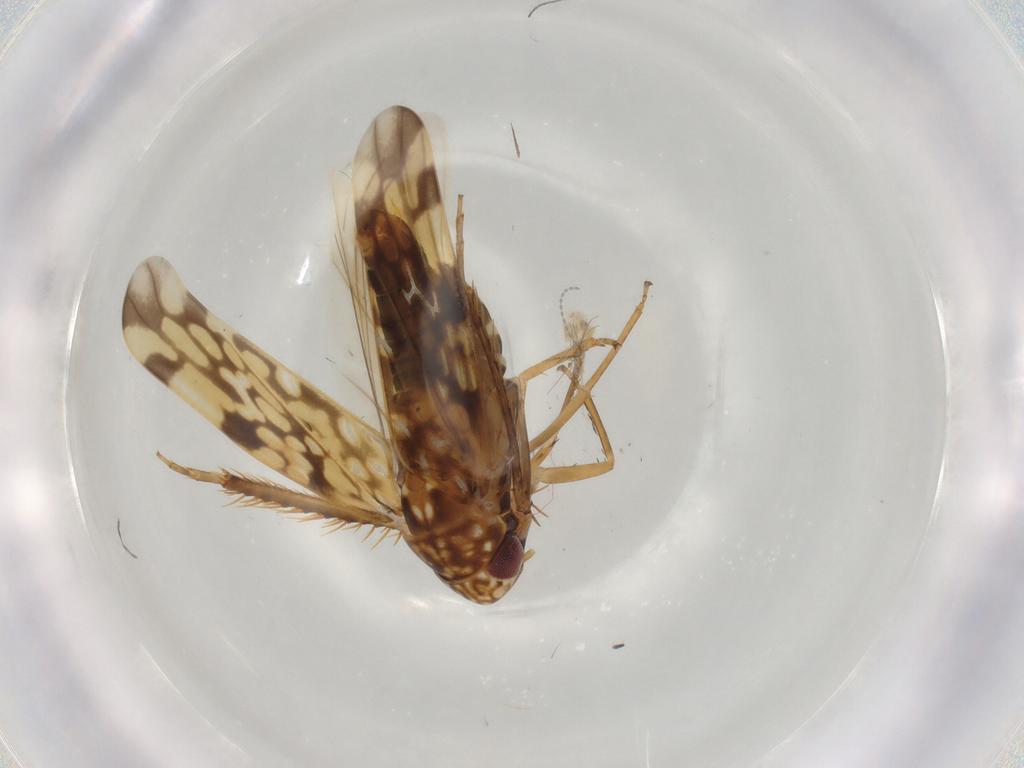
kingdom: Animalia
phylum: Arthropoda
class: Insecta
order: Hemiptera
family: Cicadellidae
